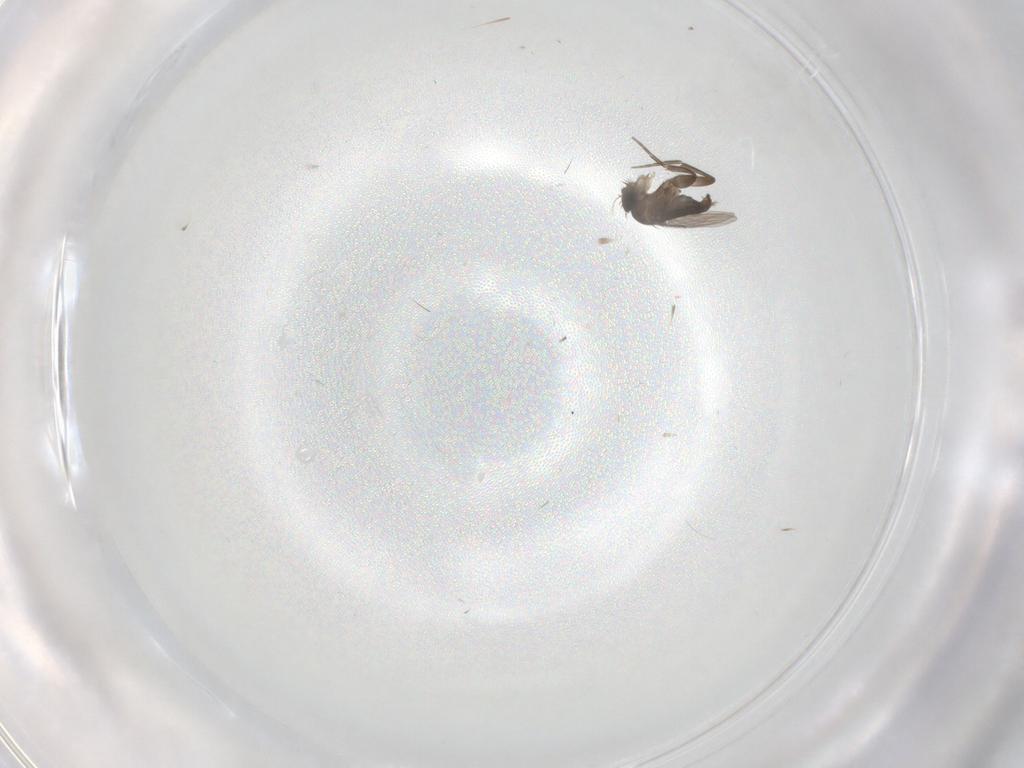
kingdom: Animalia
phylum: Arthropoda
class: Insecta
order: Diptera
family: Phoridae
